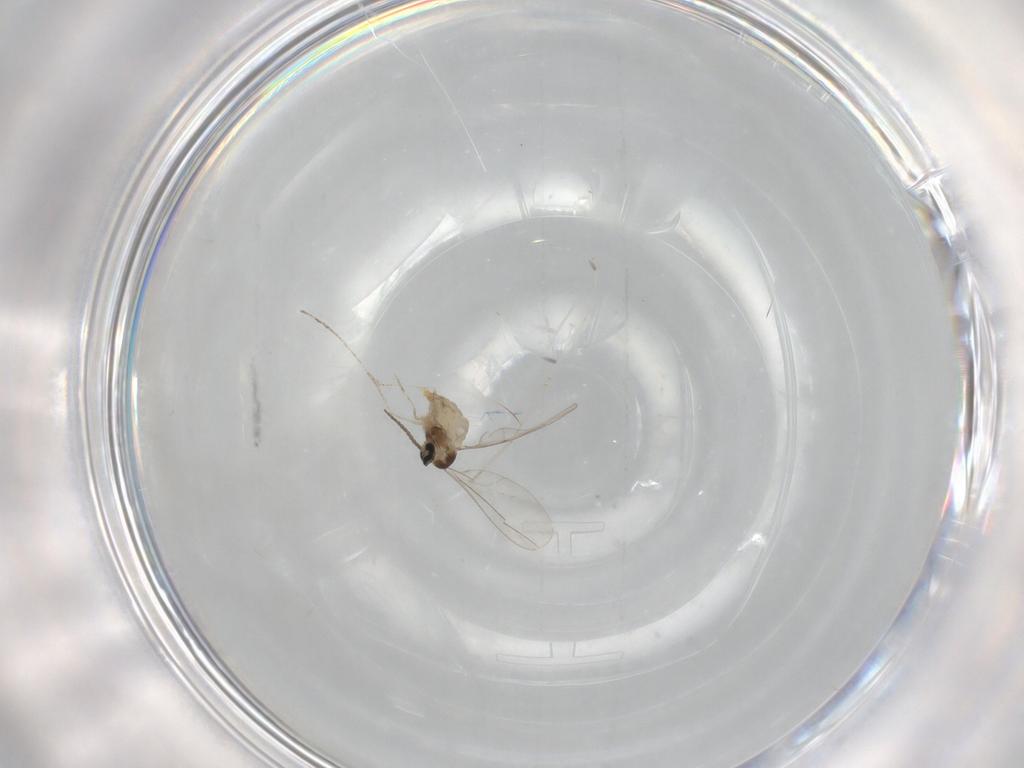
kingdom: Animalia
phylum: Arthropoda
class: Insecta
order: Diptera
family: Cecidomyiidae
